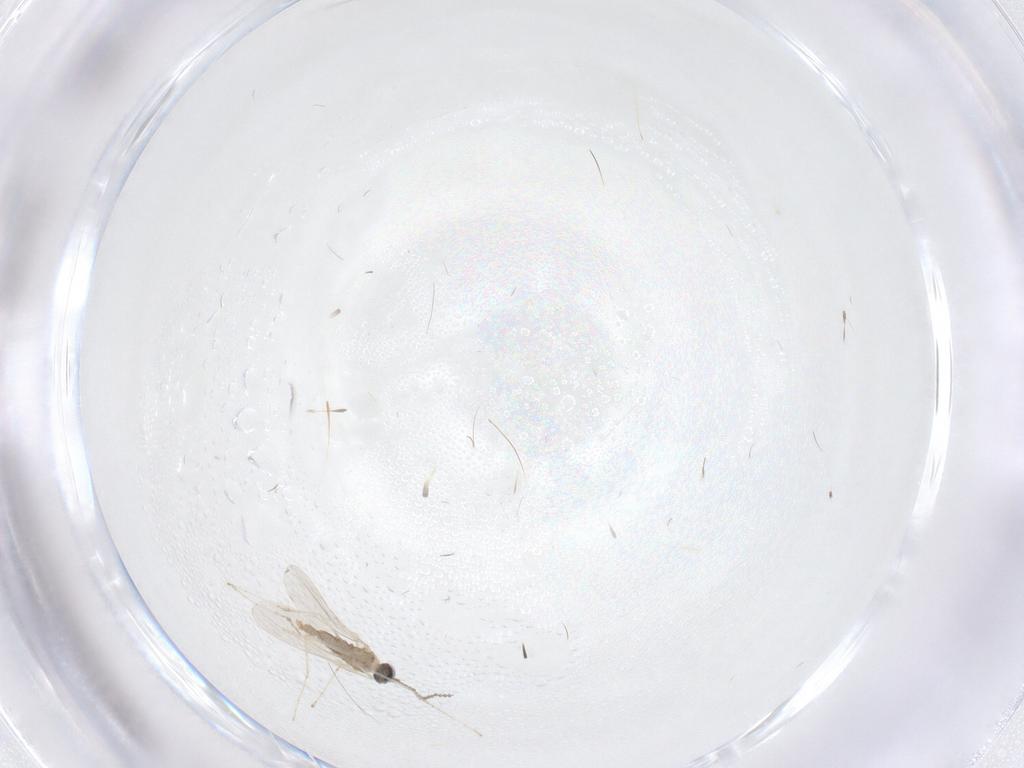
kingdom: Animalia
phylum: Arthropoda
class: Insecta
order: Diptera
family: Cecidomyiidae
